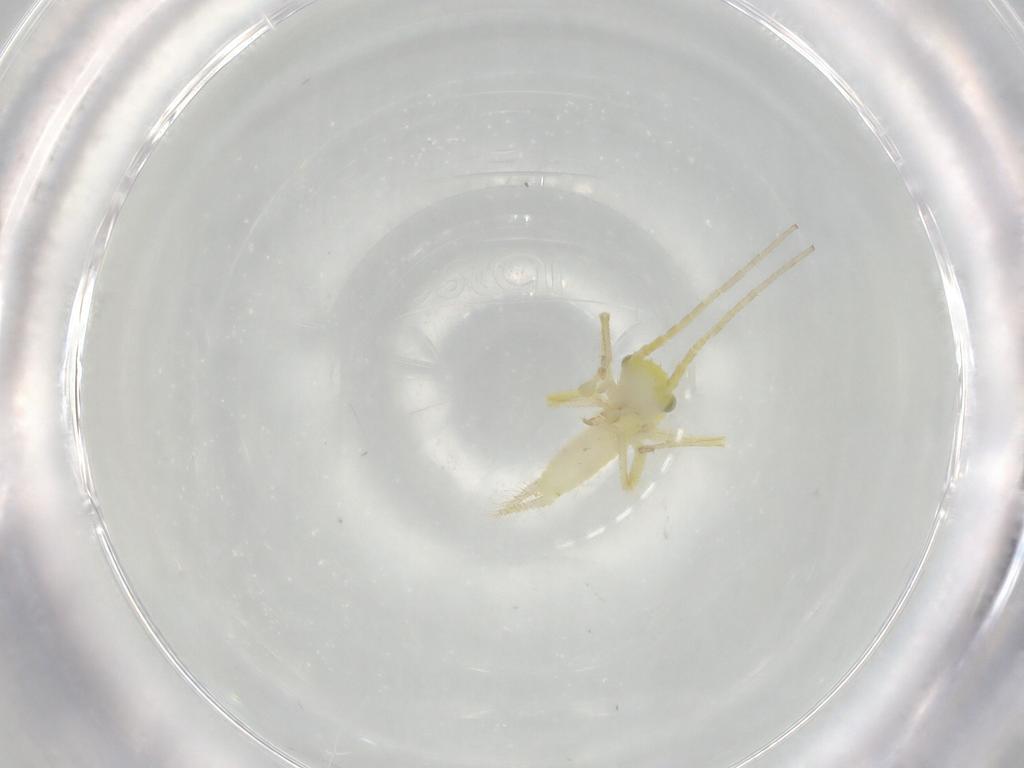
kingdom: Animalia
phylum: Arthropoda
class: Insecta
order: Orthoptera
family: Trigonidiidae
